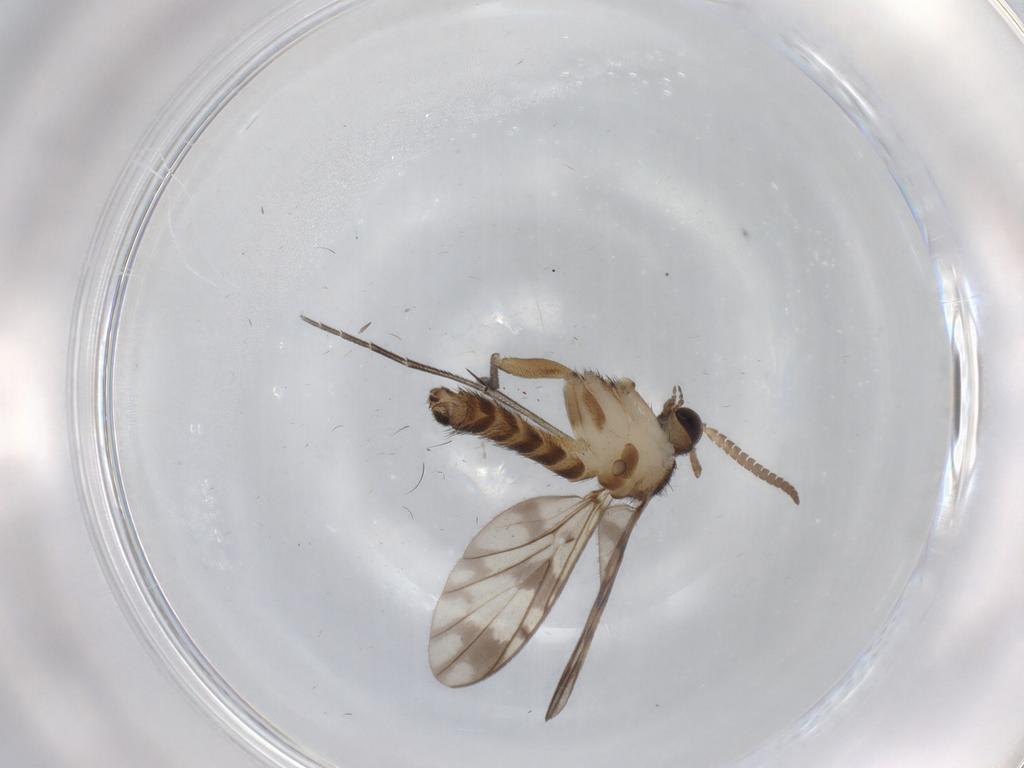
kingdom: Animalia
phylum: Arthropoda
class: Insecta
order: Diptera
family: Keroplatidae
